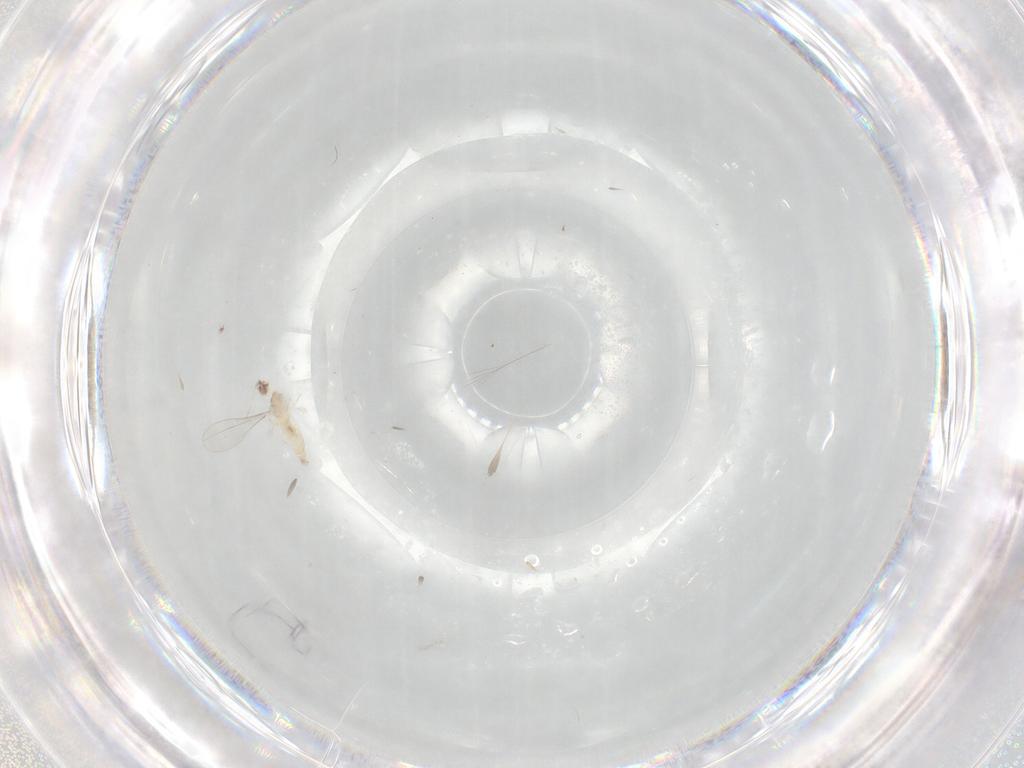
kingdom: Animalia
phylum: Arthropoda
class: Insecta
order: Diptera
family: Cecidomyiidae
